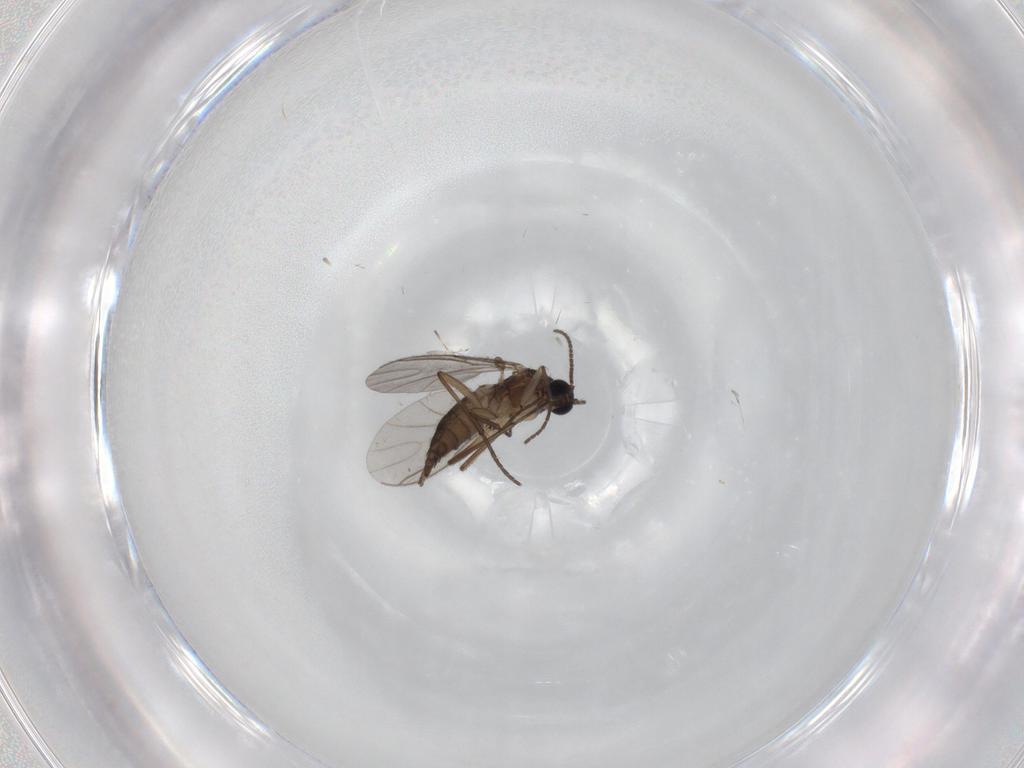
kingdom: Animalia
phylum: Arthropoda
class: Insecta
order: Diptera
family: Sciaridae
